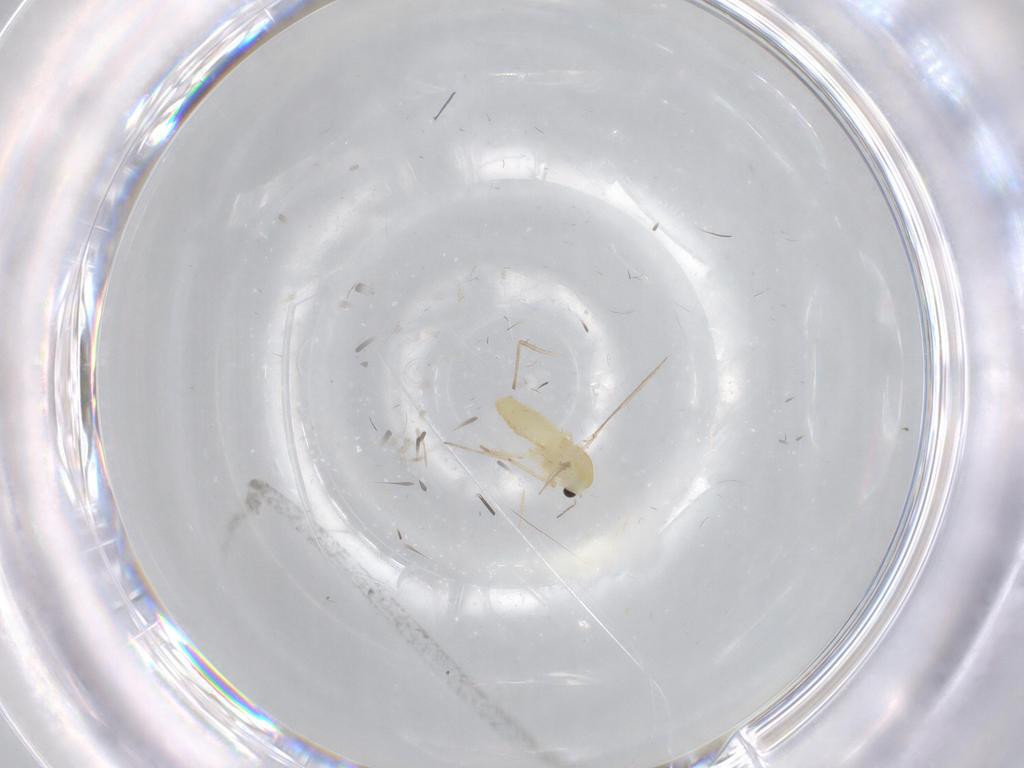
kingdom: Animalia
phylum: Arthropoda
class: Insecta
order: Diptera
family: Chironomidae
